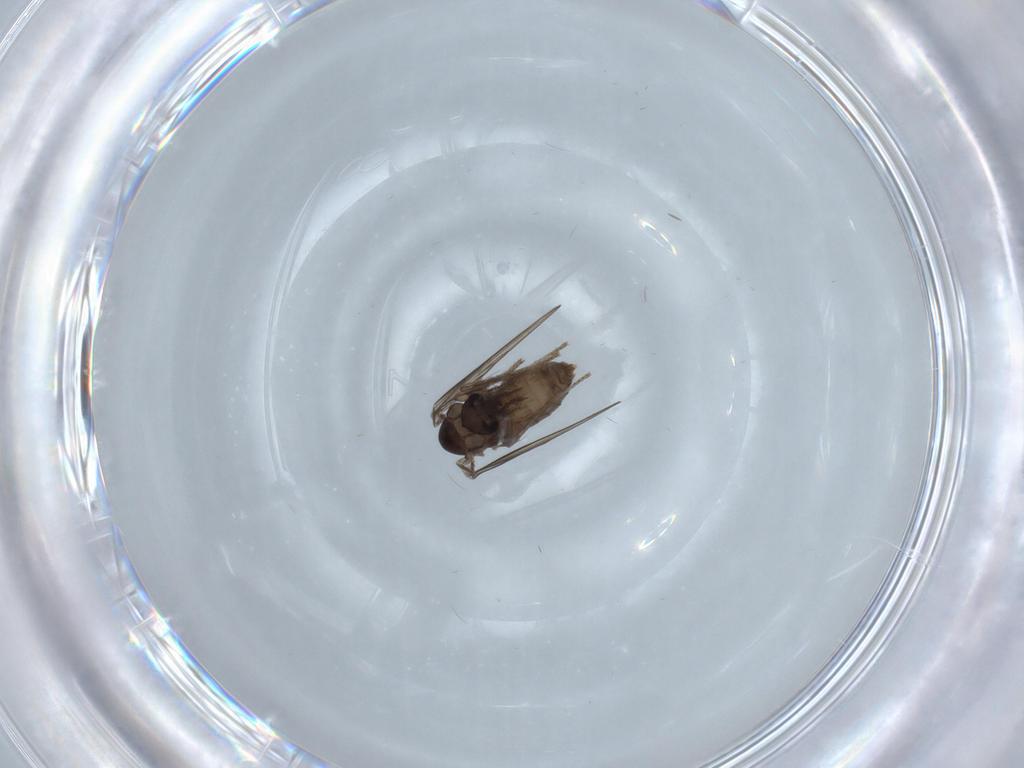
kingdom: Animalia
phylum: Arthropoda
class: Insecta
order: Diptera
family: Psychodidae
